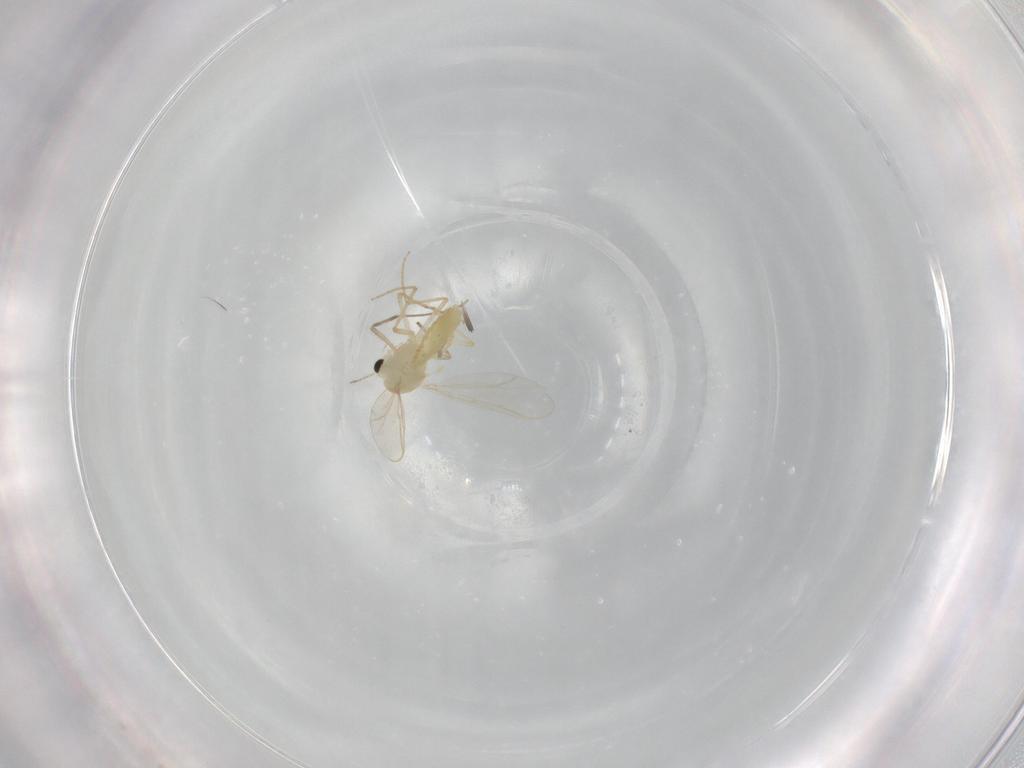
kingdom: Animalia
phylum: Arthropoda
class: Insecta
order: Diptera
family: Chironomidae
